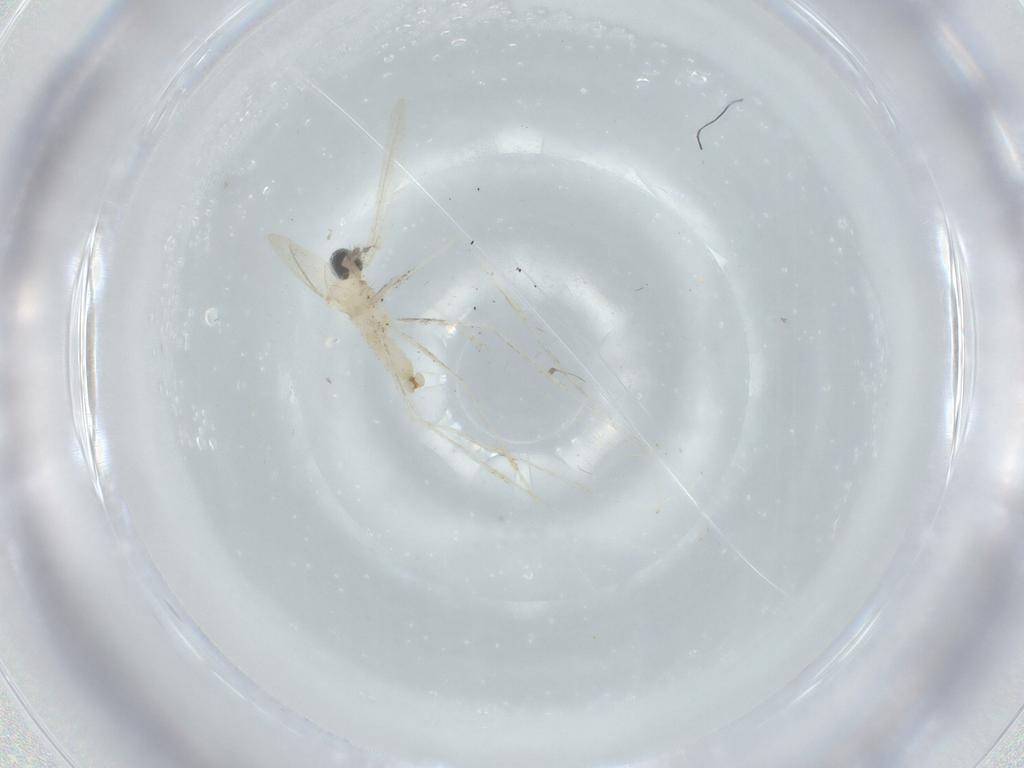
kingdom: Animalia
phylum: Arthropoda
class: Insecta
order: Diptera
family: Cecidomyiidae
